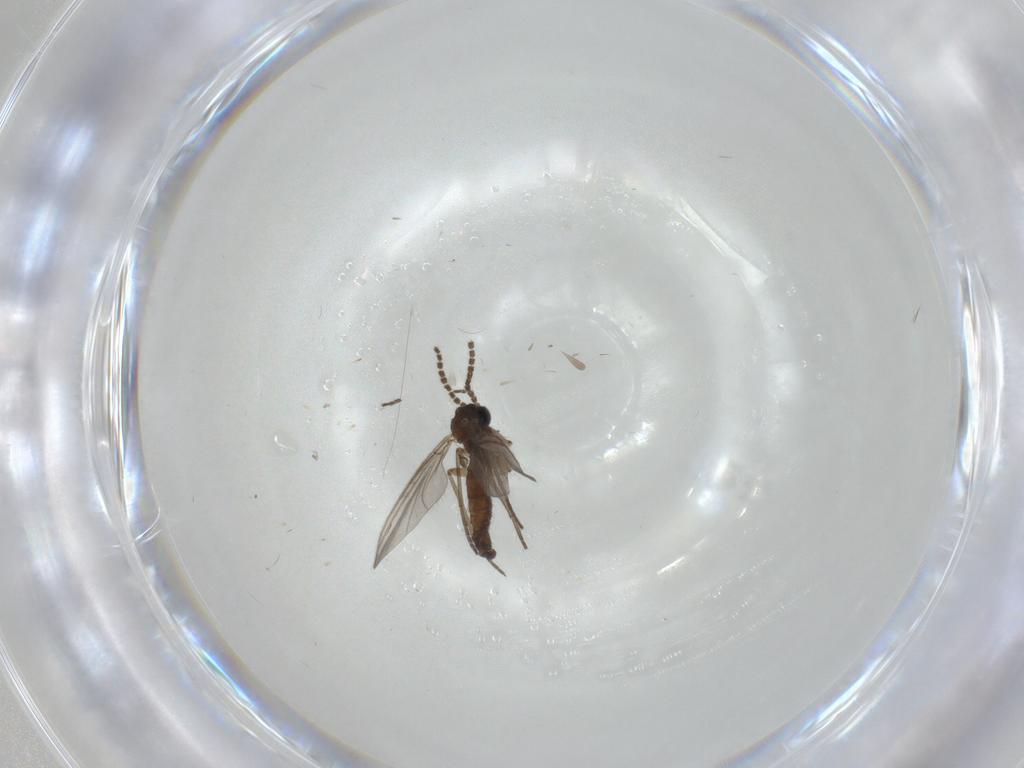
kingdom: Animalia
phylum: Arthropoda
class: Insecta
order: Diptera
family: Sciaridae
